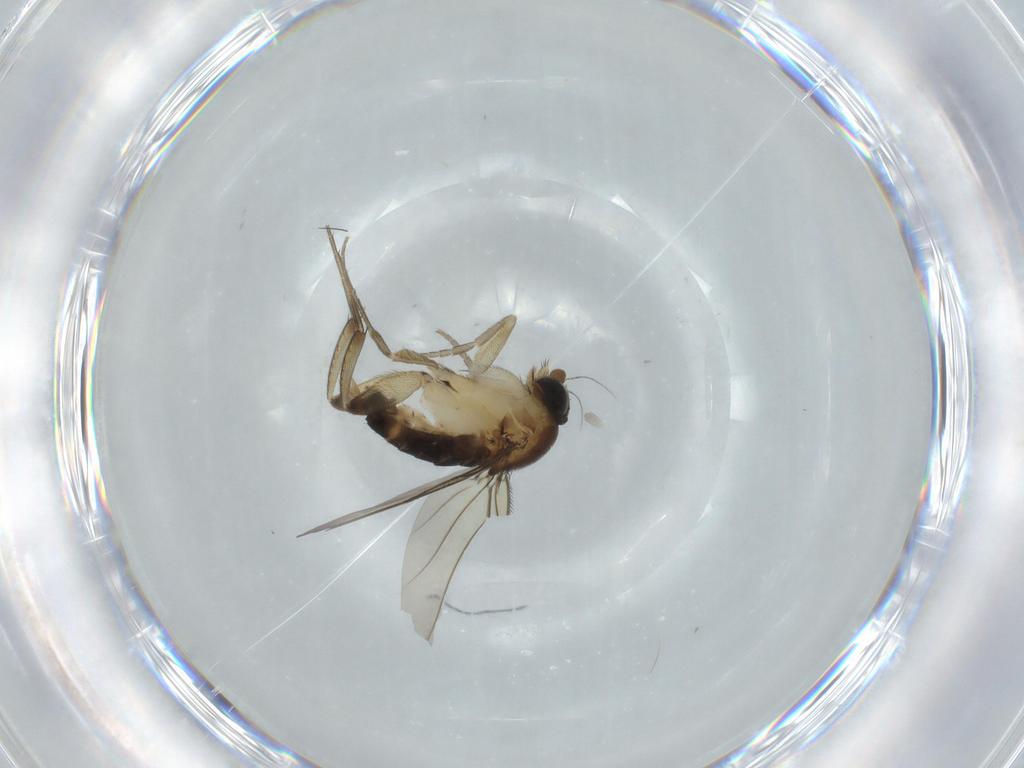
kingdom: Animalia
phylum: Arthropoda
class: Insecta
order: Diptera
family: Phoridae
